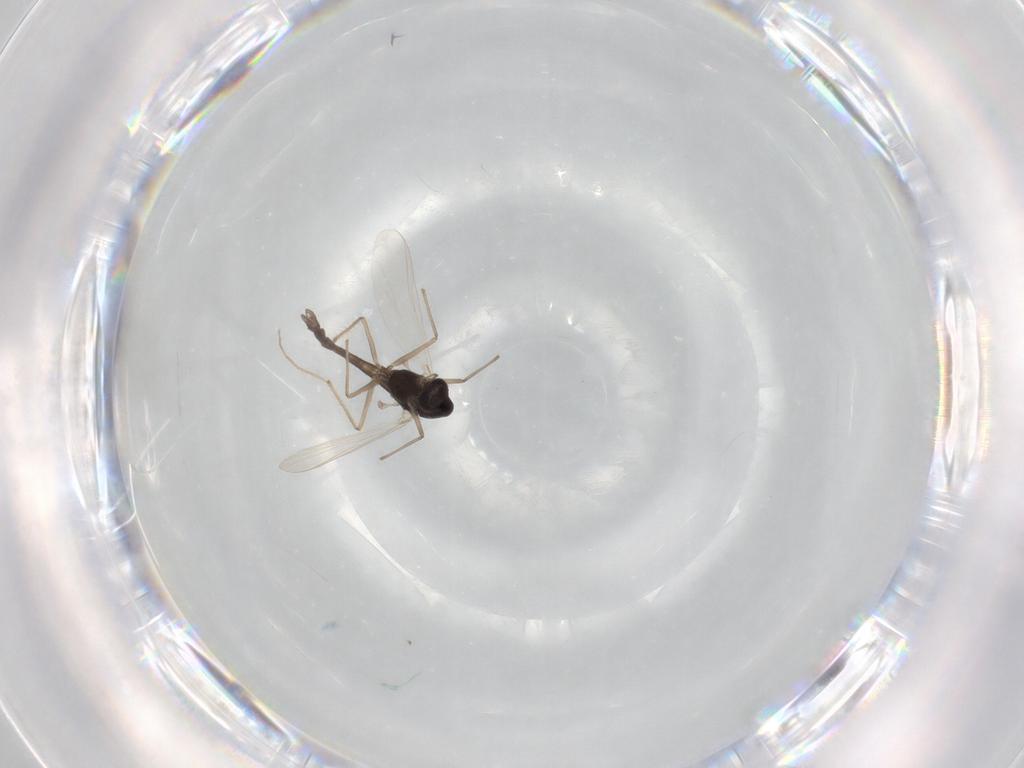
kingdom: Animalia
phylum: Arthropoda
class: Insecta
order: Diptera
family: Chironomidae
